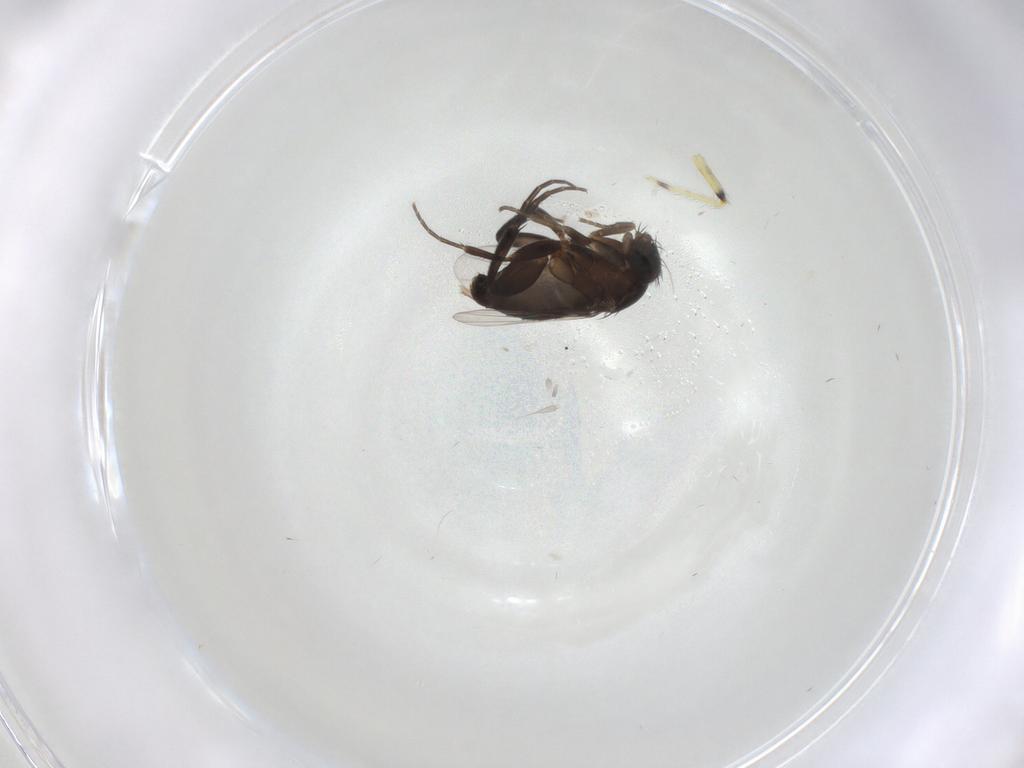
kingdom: Animalia
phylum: Arthropoda
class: Insecta
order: Diptera
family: Phoridae
